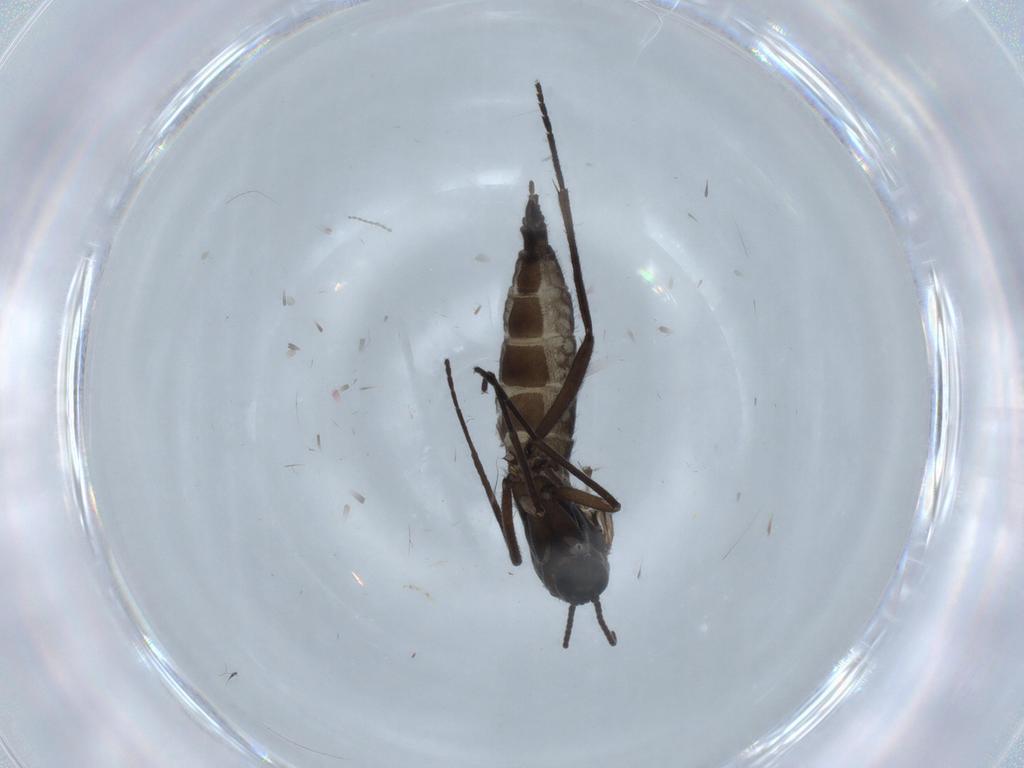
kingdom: Animalia
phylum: Arthropoda
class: Insecta
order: Diptera
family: Sciaridae
